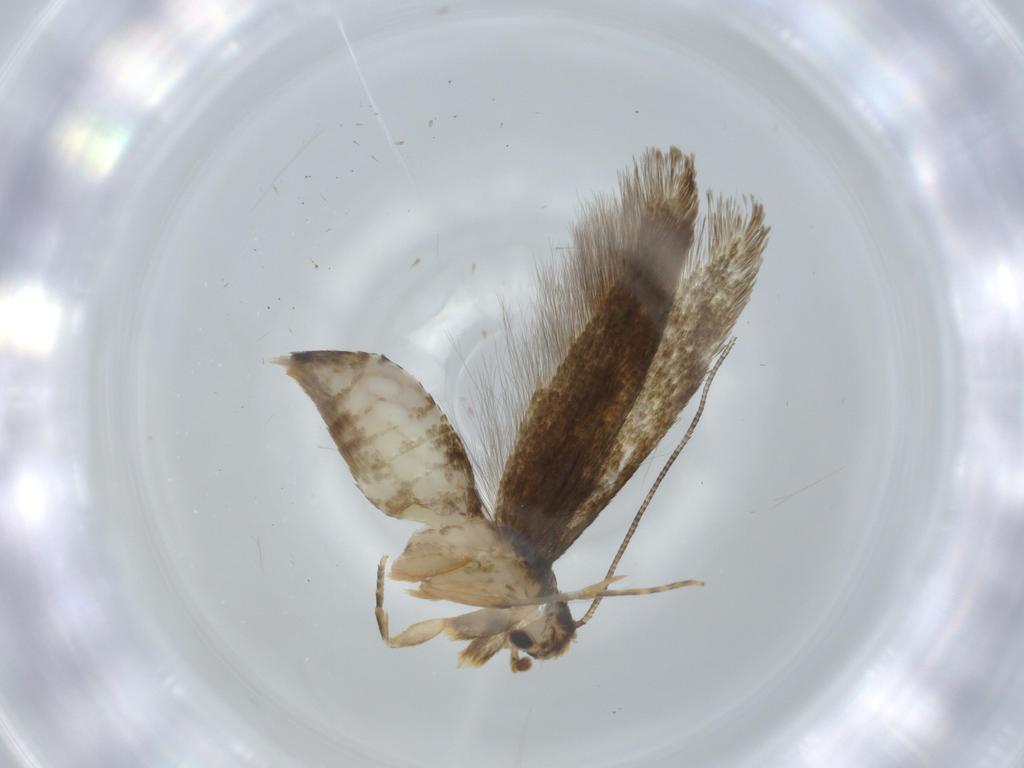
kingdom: Animalia
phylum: Arthropoda
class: Insecta
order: Lepidoptera
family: Tineidae
